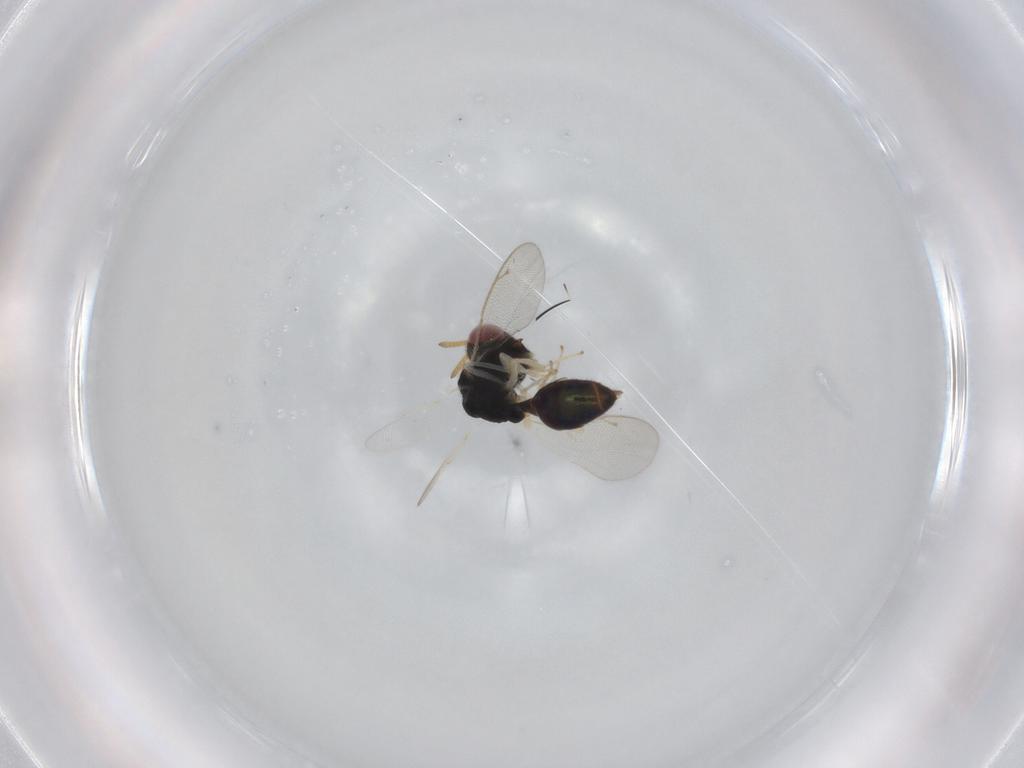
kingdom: Animalia
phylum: Arthropoda
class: Insecta
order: Hymenoptera
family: Pteromalidae
